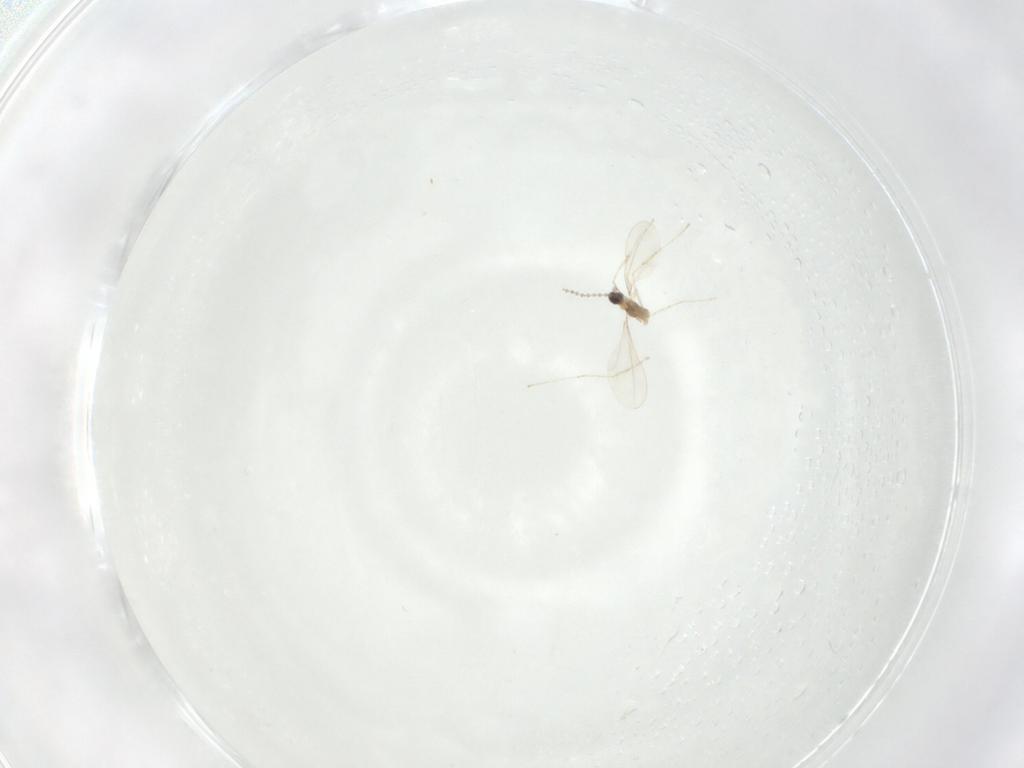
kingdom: Animalia
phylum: Arthropoda
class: Insecta
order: Diptera
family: Cecidomyiidae
